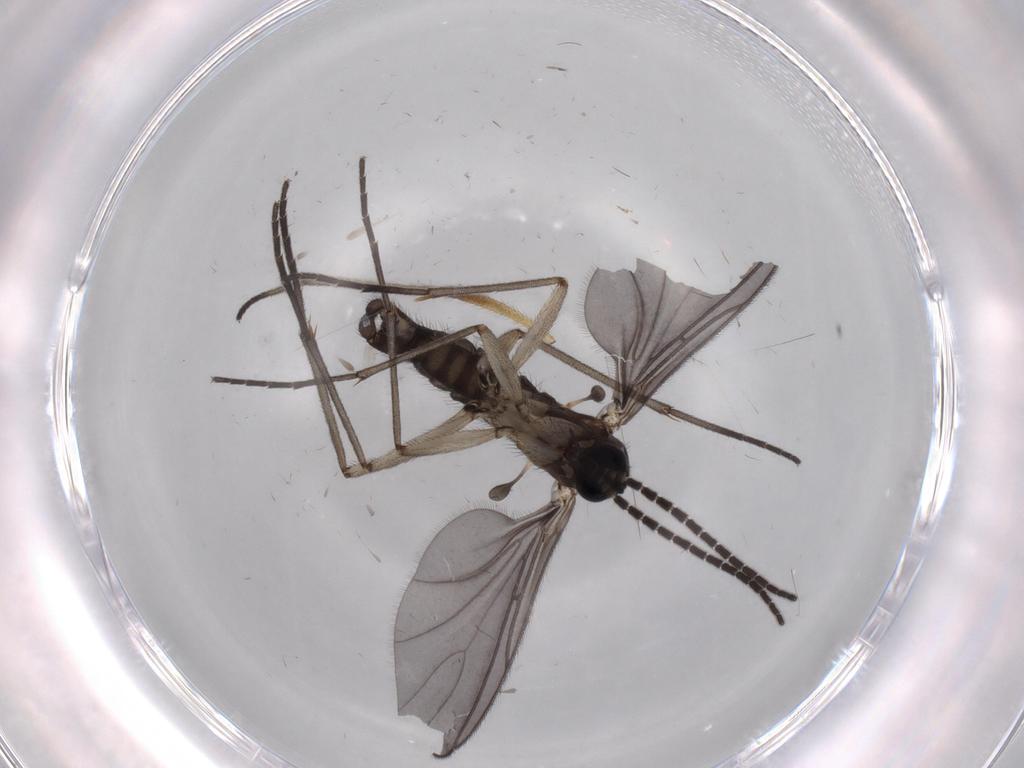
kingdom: Animalia
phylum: Arthropoda
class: Insecta
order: Diptera
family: Sciaridae
